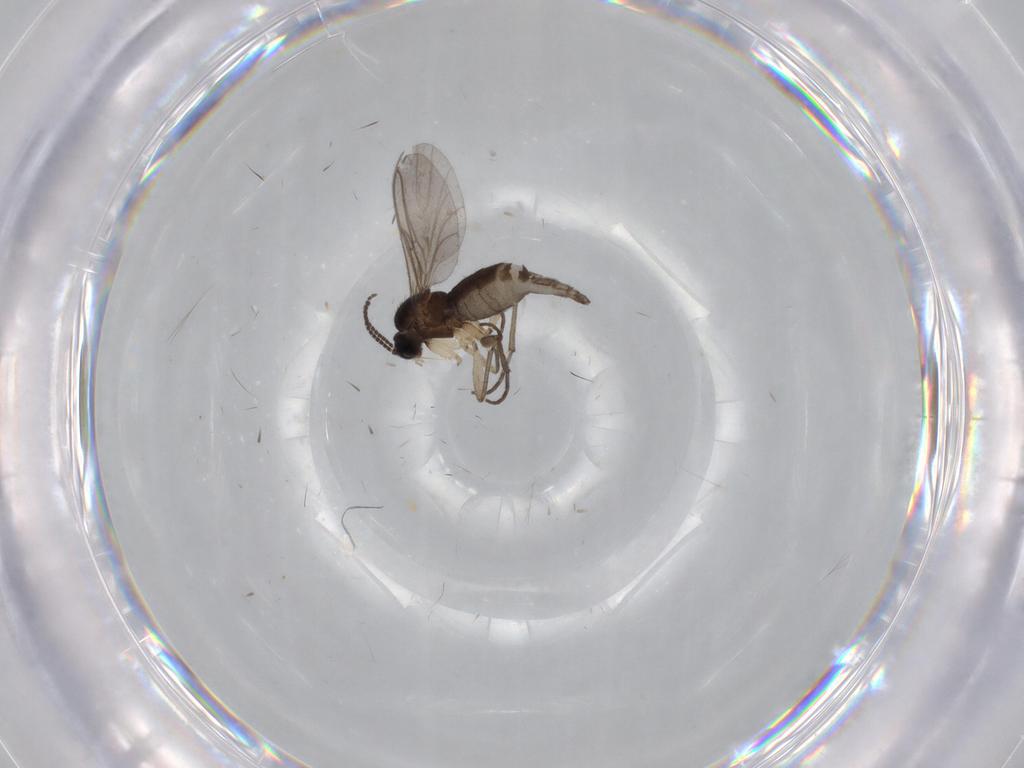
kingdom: Animalia
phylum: Arthropoda
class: Insecta
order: Diptera
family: Sciaridae
